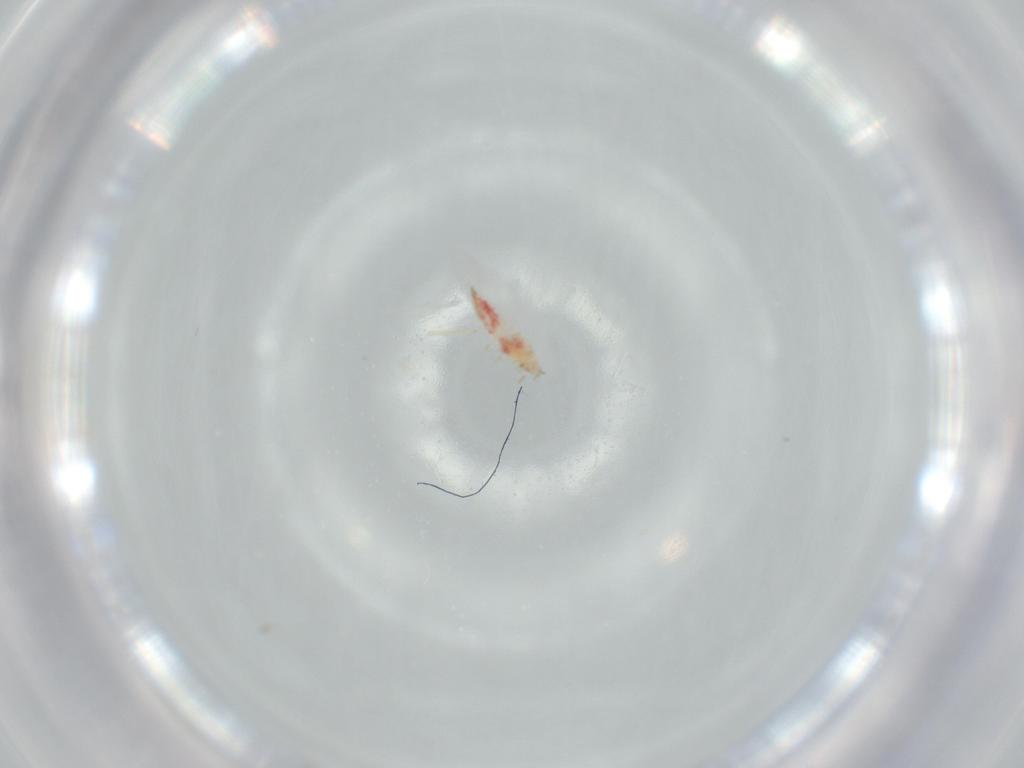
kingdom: Animalia
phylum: Arthropoda
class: Insecta
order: Thysanoptera
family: Phlaeothripidae
